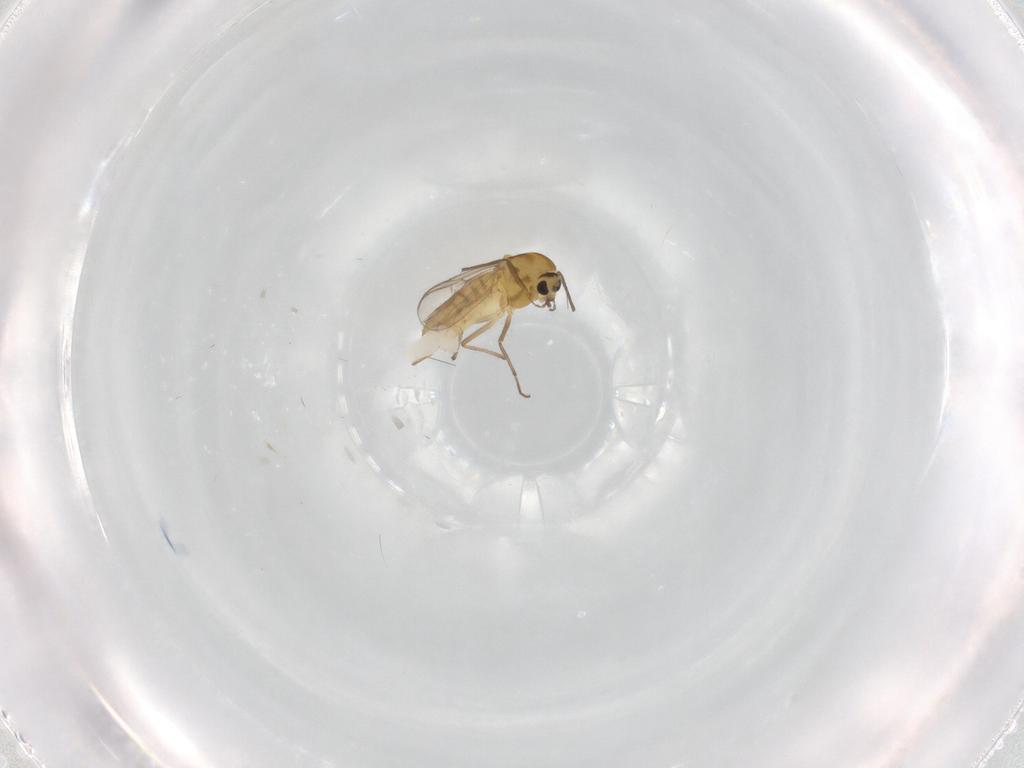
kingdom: Animalia
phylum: Arthropoda
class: Insecta
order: Diptera
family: Chironomidae
